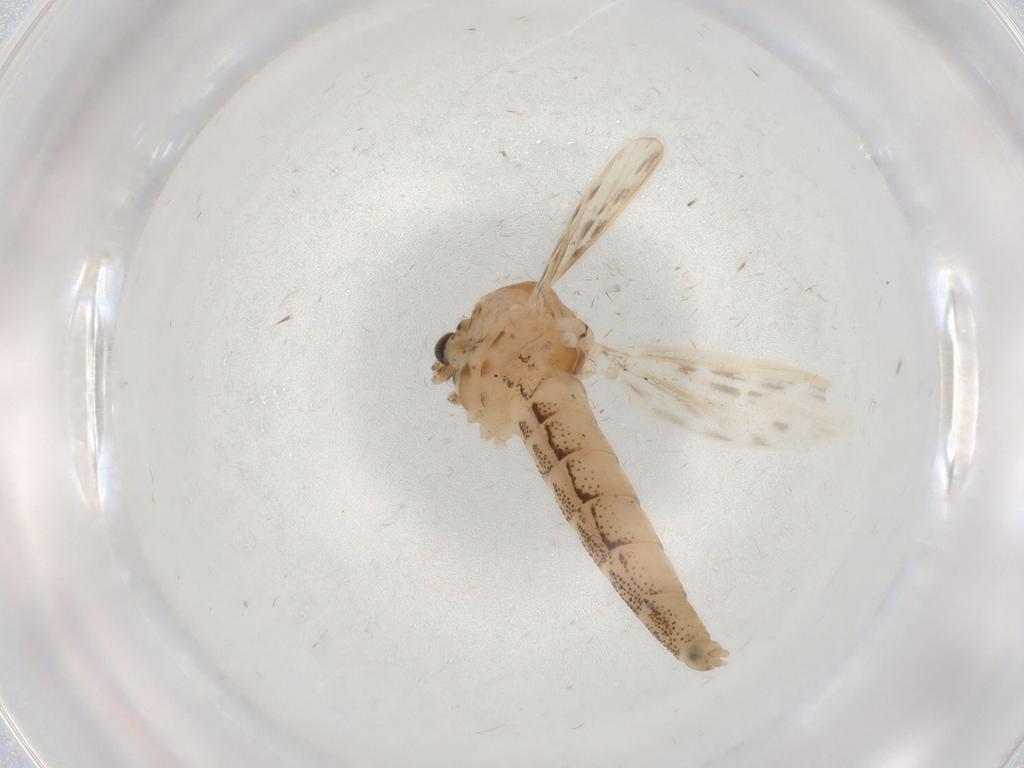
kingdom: Animalia
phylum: Arthropoda
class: Insecta
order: Diptera
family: Chaoboridae
